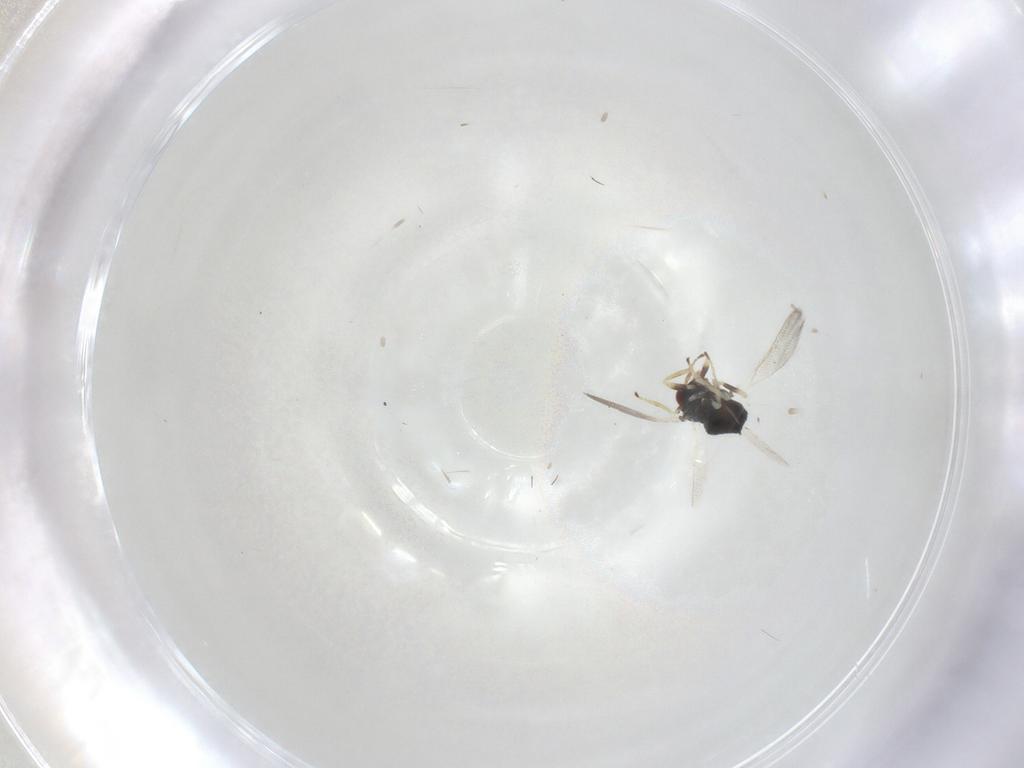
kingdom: Animalia
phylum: Arthropoda
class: Insecta
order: Hymenoptera
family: Eulophidae
